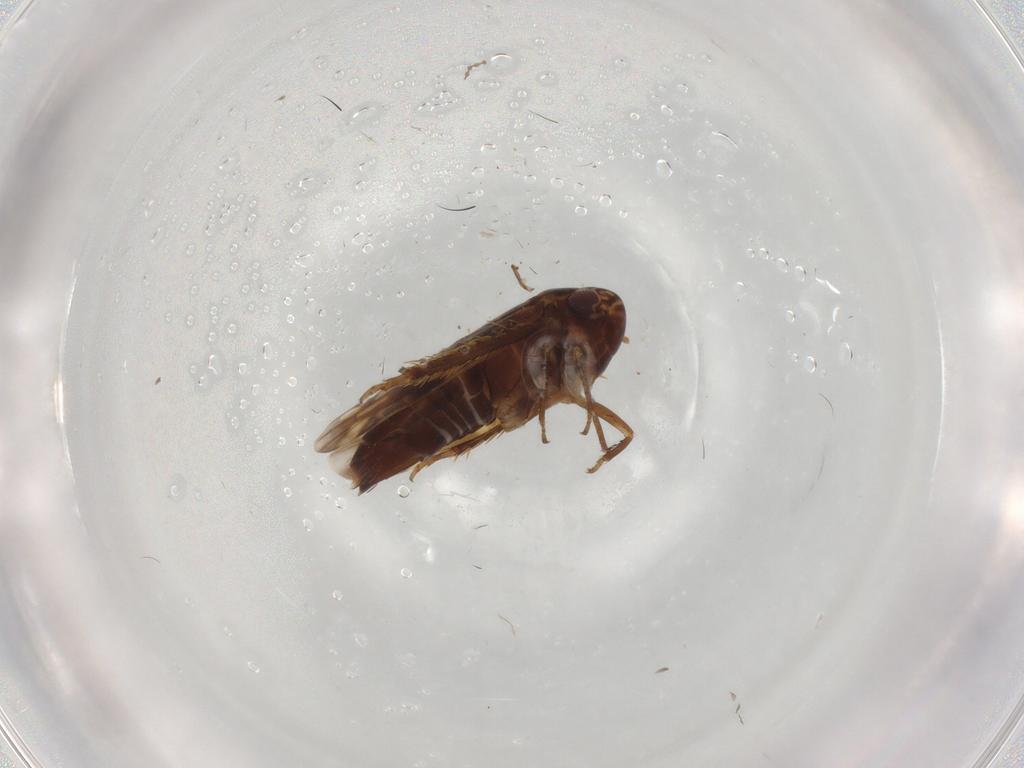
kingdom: Animalia
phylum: Arthropoda
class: Insecta
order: Hemiptera
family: Cicadellidae
